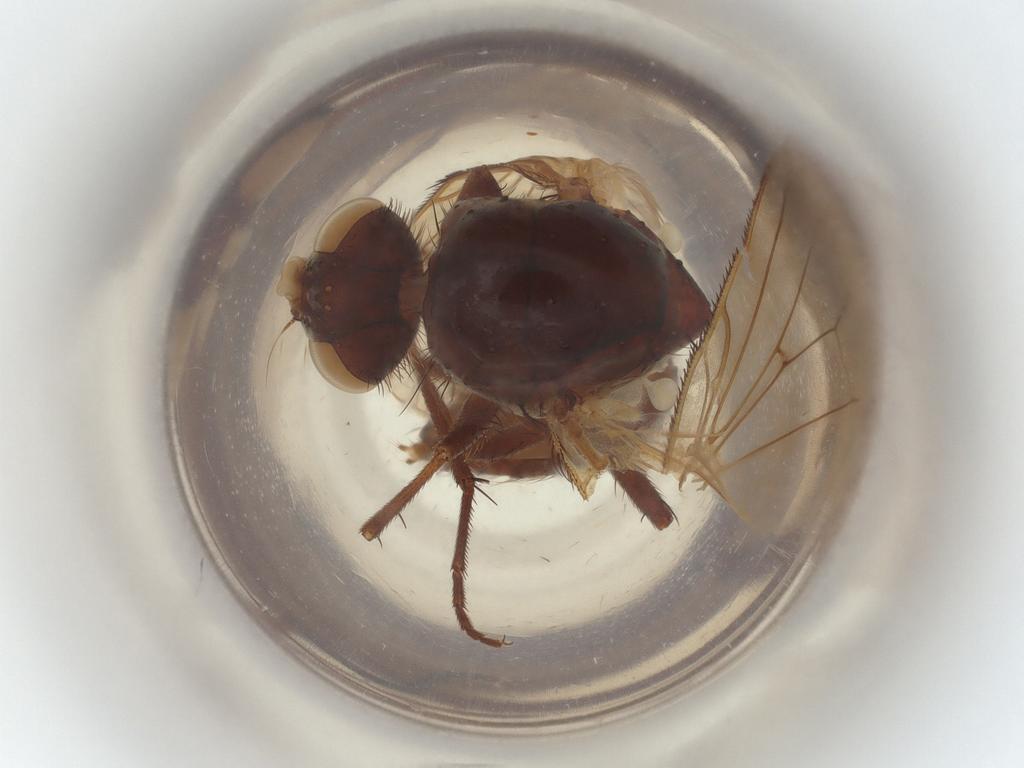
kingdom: Animalia
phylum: Arthropoda
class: Insecta
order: Diptera
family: Anthomyiidae
